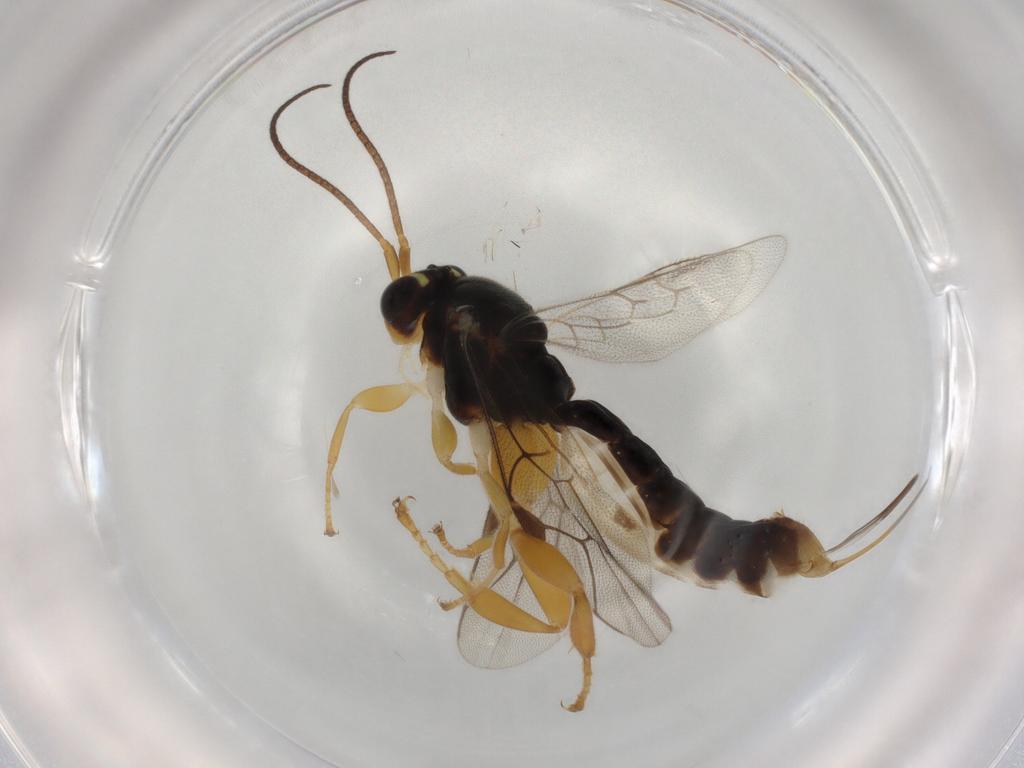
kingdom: Animalia
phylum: Arthropoda
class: Insecta
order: Hymenoptera
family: Ichneumonidae
